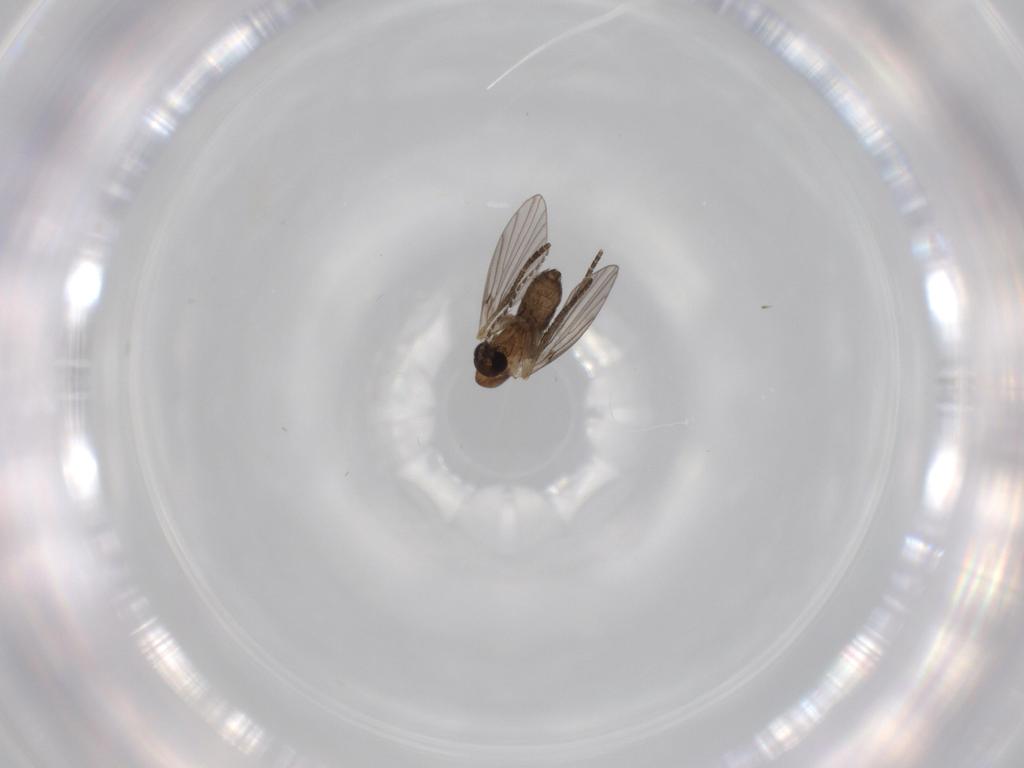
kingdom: Animalia
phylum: Arthropoda
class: Insecta
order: Diptera
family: Psychodidae
